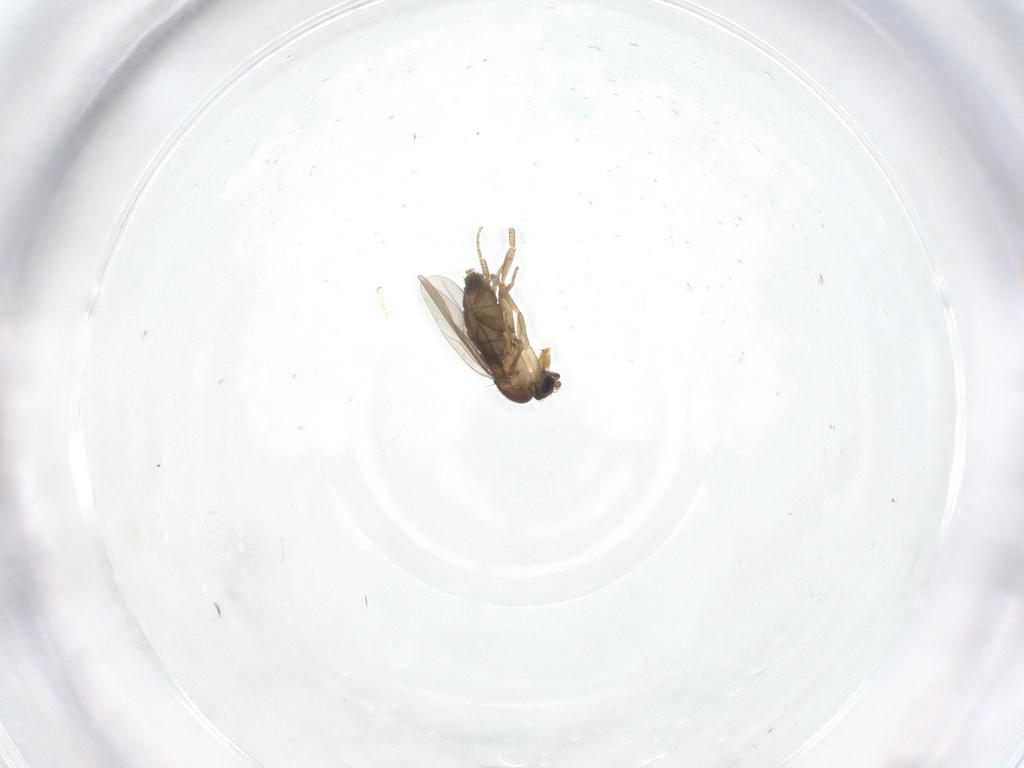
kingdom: Animalia
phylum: Arthropoda
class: Insecta
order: Diptera
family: Phoridae
